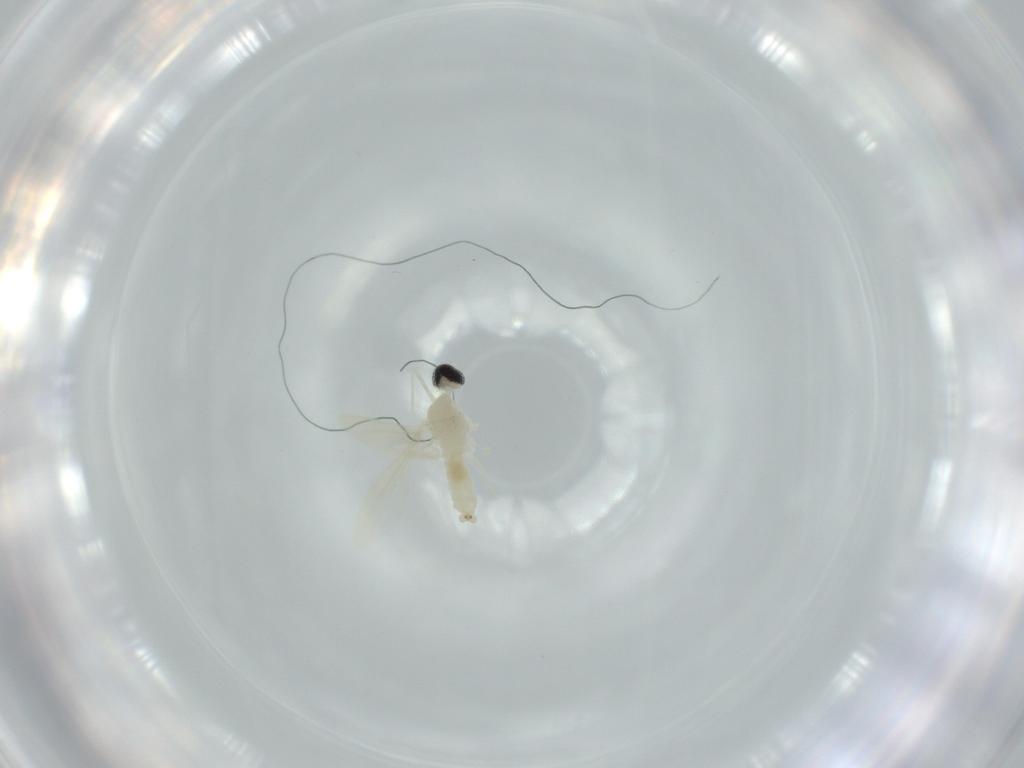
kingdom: Animalia
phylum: Arthropoda
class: Insecta
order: Diptera
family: Cecidomyiidae
